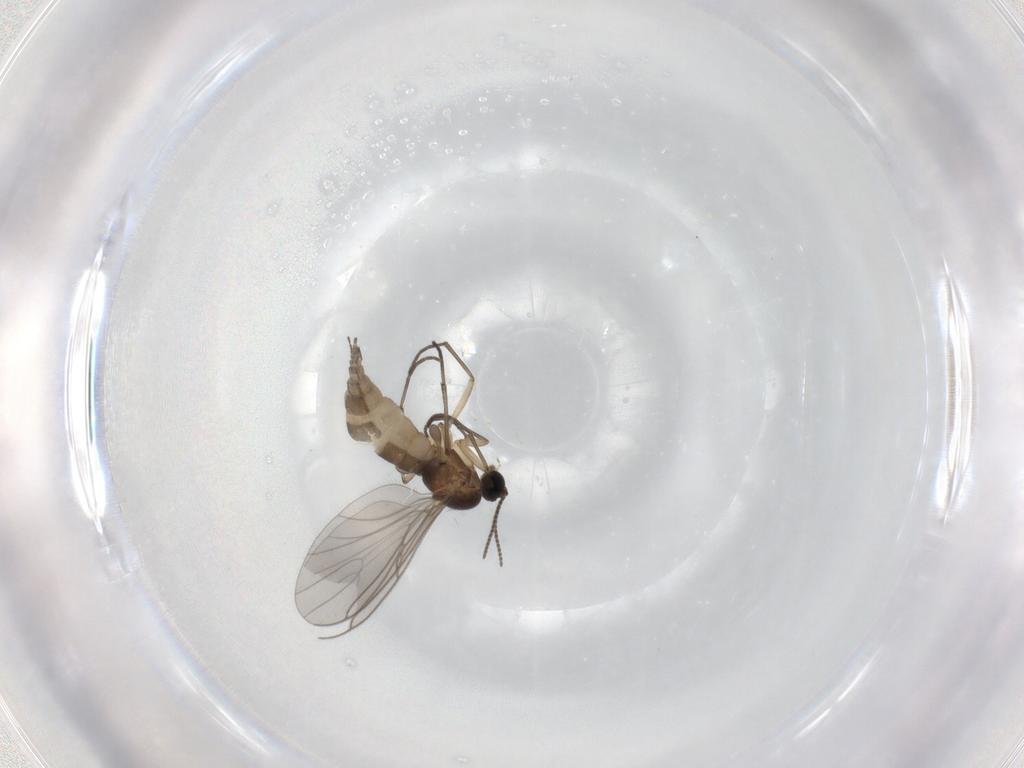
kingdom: Animalia
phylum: Arthropoda
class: Insecta
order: Diptera
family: Sciaridae
